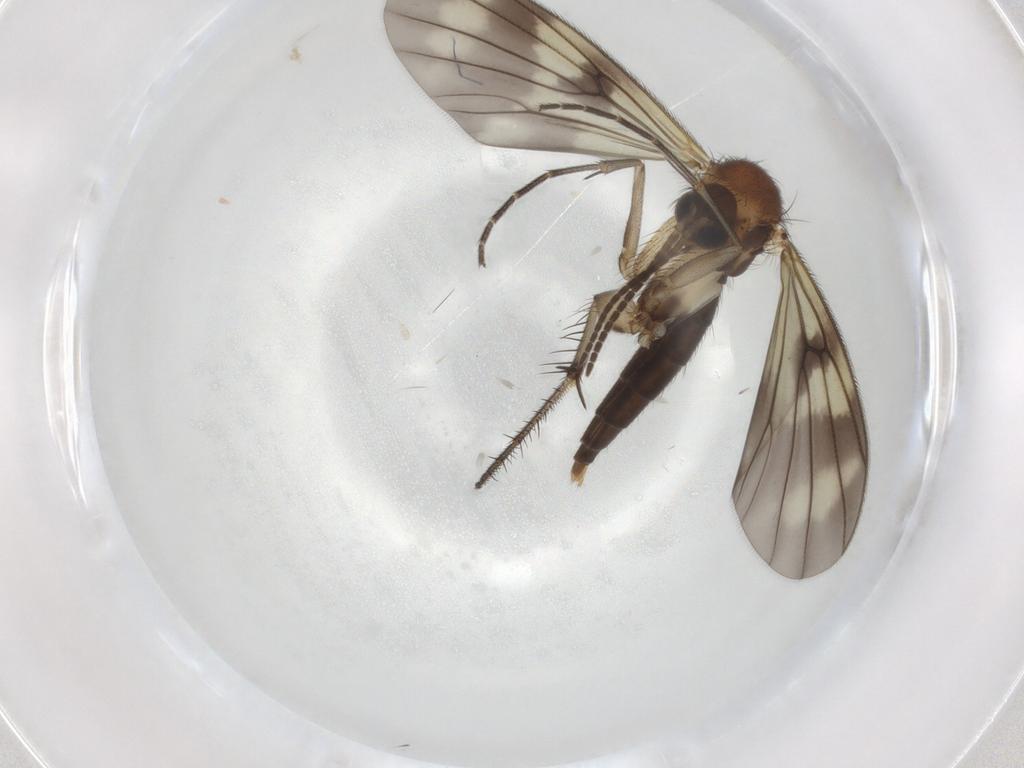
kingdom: Animalia
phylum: Arthropoda
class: Insecta
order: Diptera
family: Mycetophilidae
